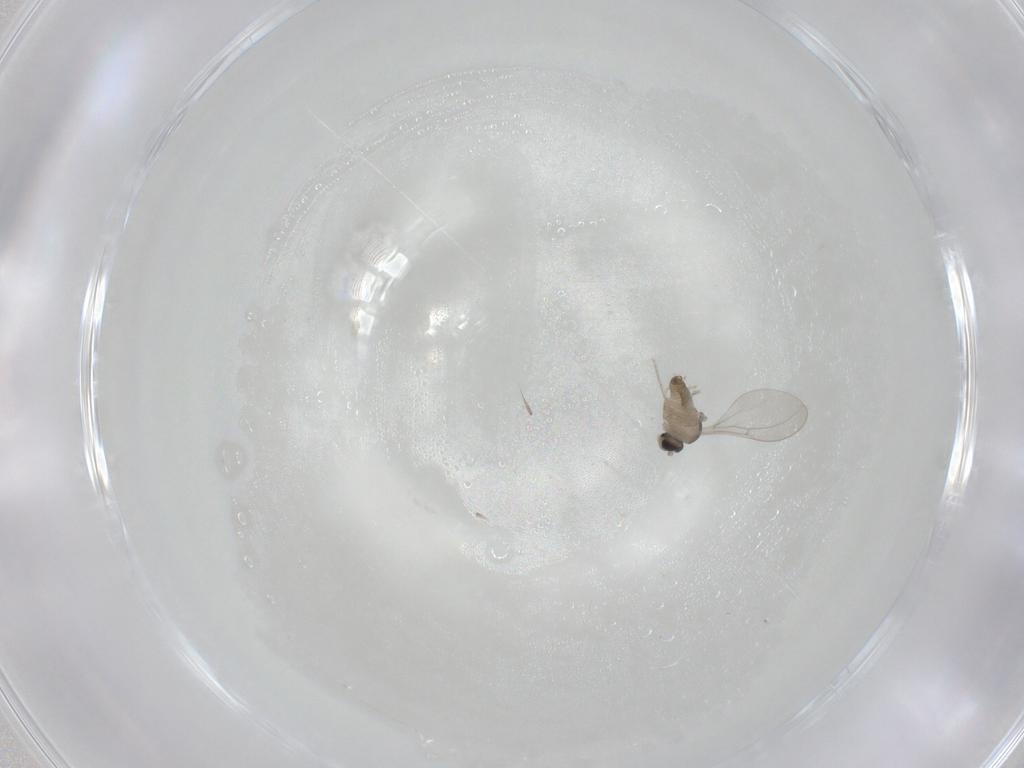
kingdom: Animalia
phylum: Arthropoda
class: Insecta
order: Diptera
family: Cecidomyiidae
